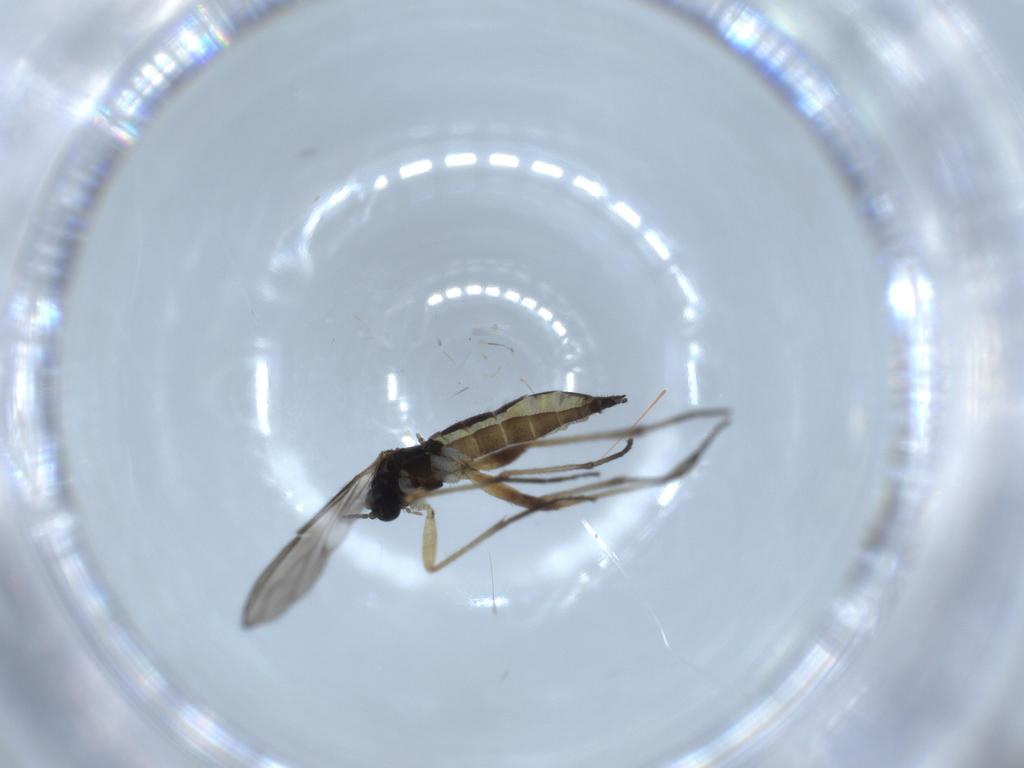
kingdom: Animalia
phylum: Arthropoda
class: Insecta
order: Diptera
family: Sciaridae
